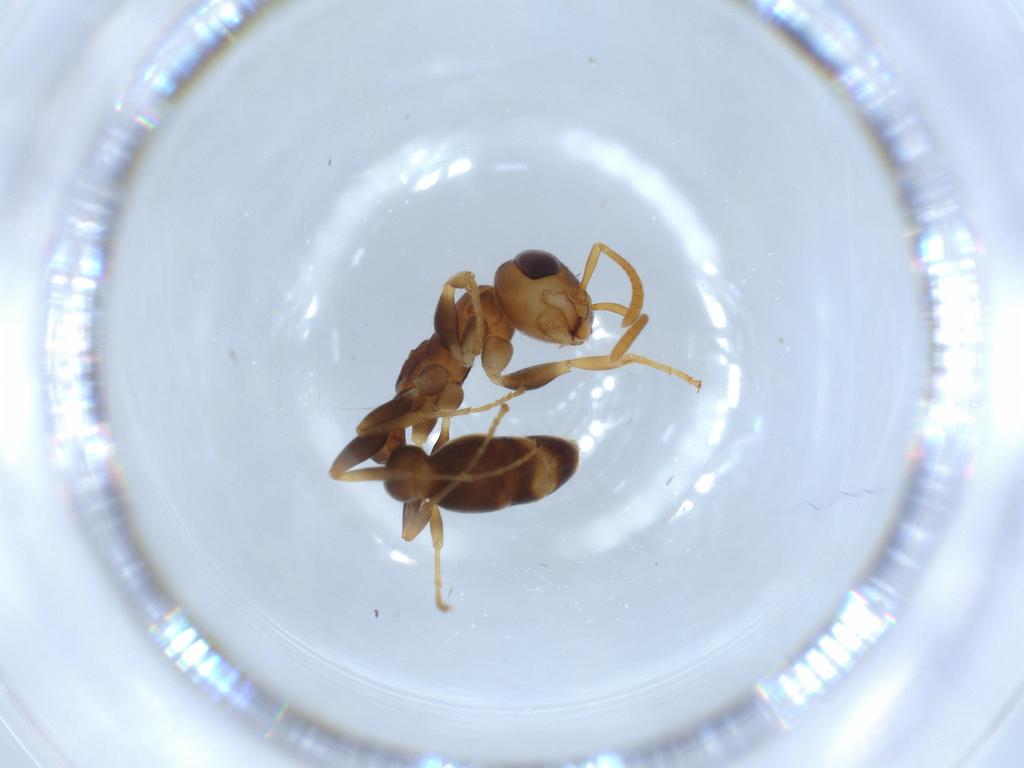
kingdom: Animalia
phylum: Arthropoda
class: Insecta
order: Hymenoptera
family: Formicidae
